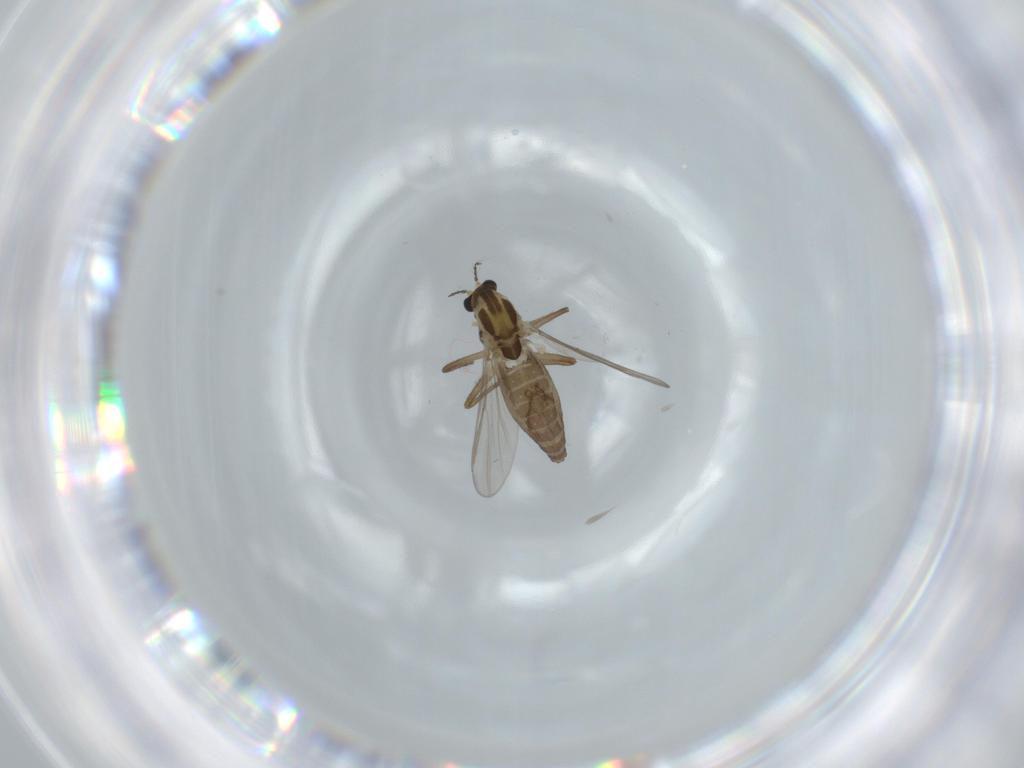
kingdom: Animalia
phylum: Arthropoda
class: Insecta
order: Diptera
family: Chironomidae
